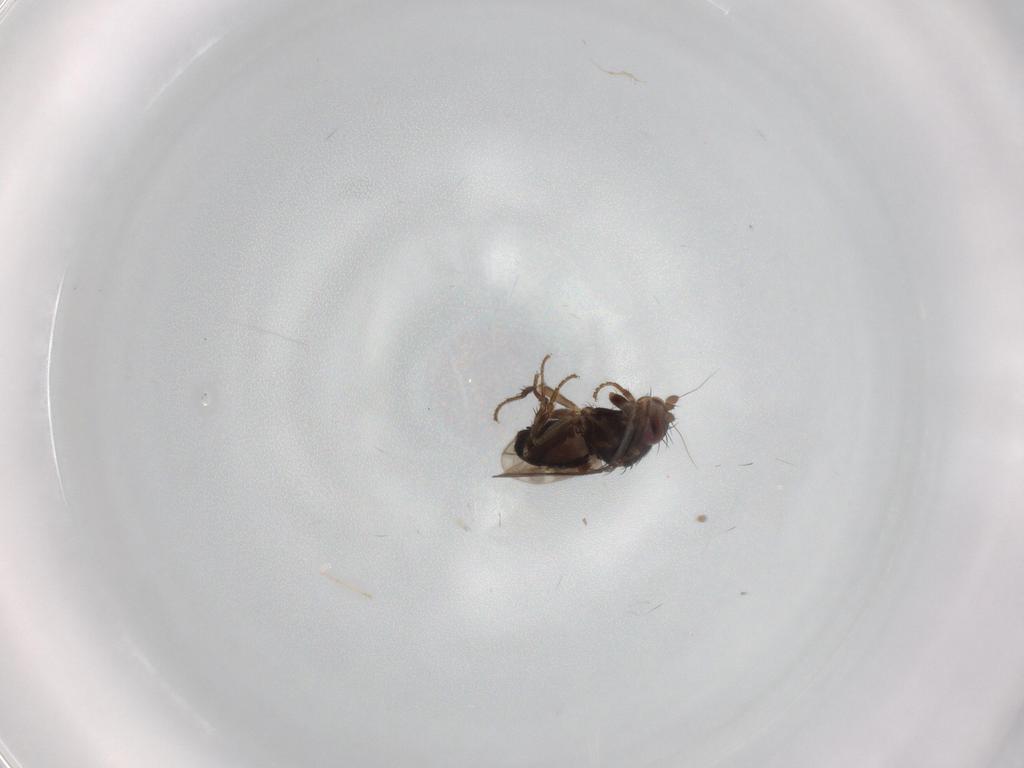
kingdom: Animalia
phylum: Arthropoda
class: Insecta
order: Diptera
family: Sphaeroceridae
